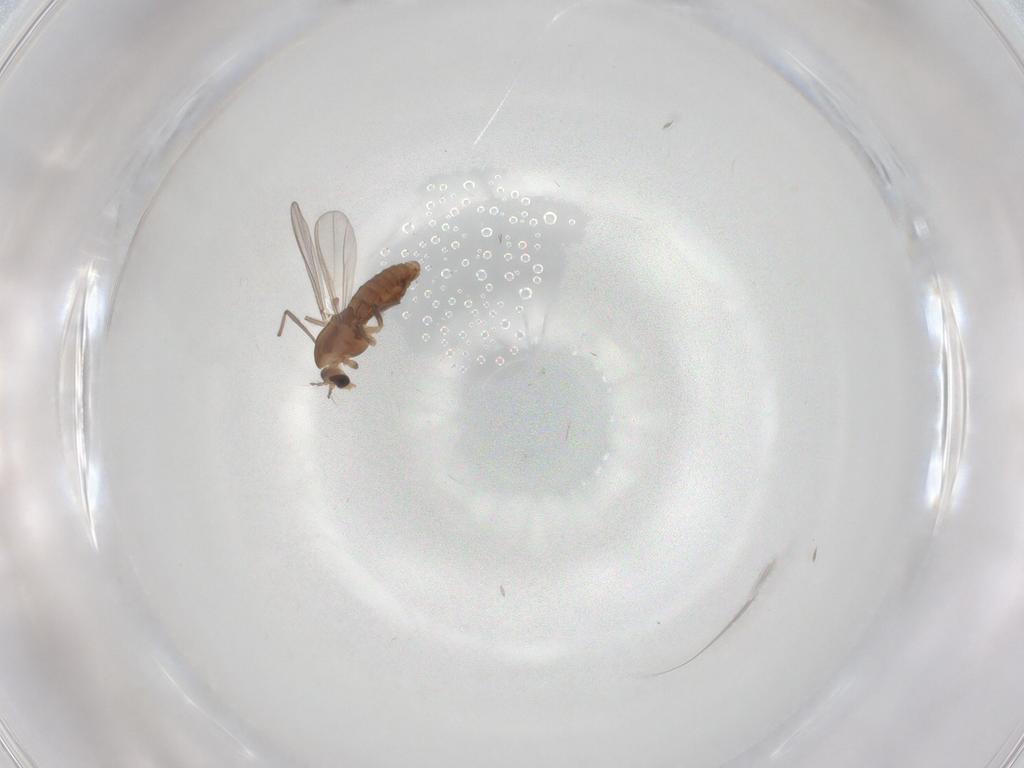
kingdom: Animalia
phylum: Arthropoda
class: Insecta
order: Diptera
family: Chironomidae
